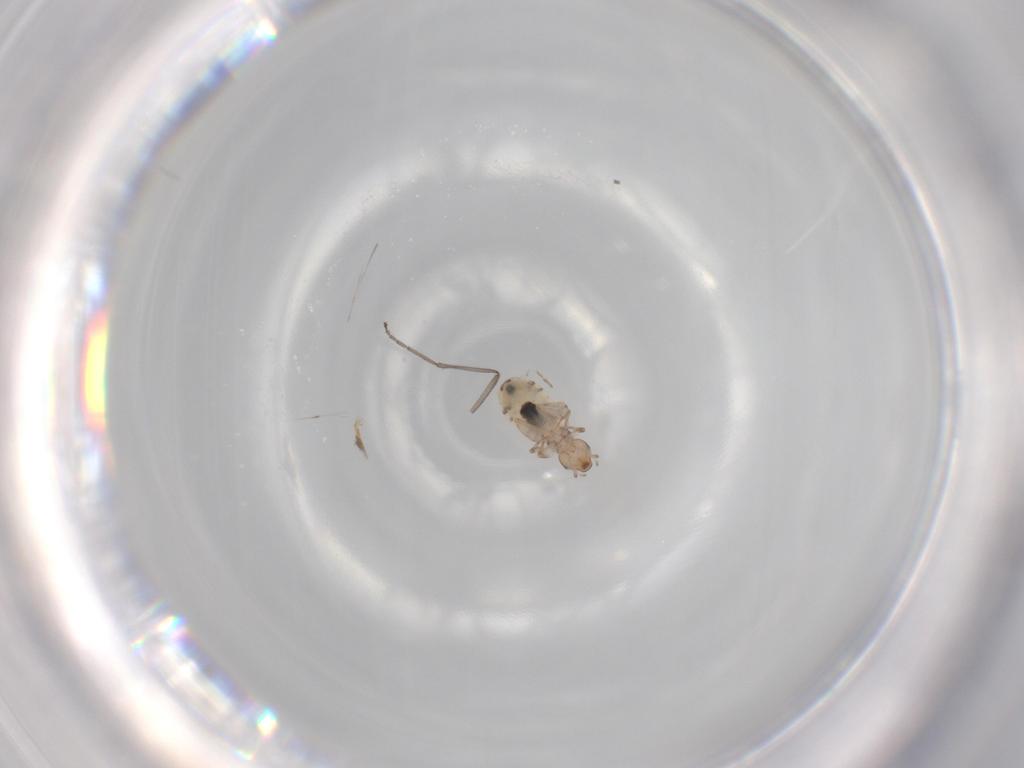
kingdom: Animalia
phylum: Arthropoda
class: Insecta
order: Psocodea
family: Liposcelididae
